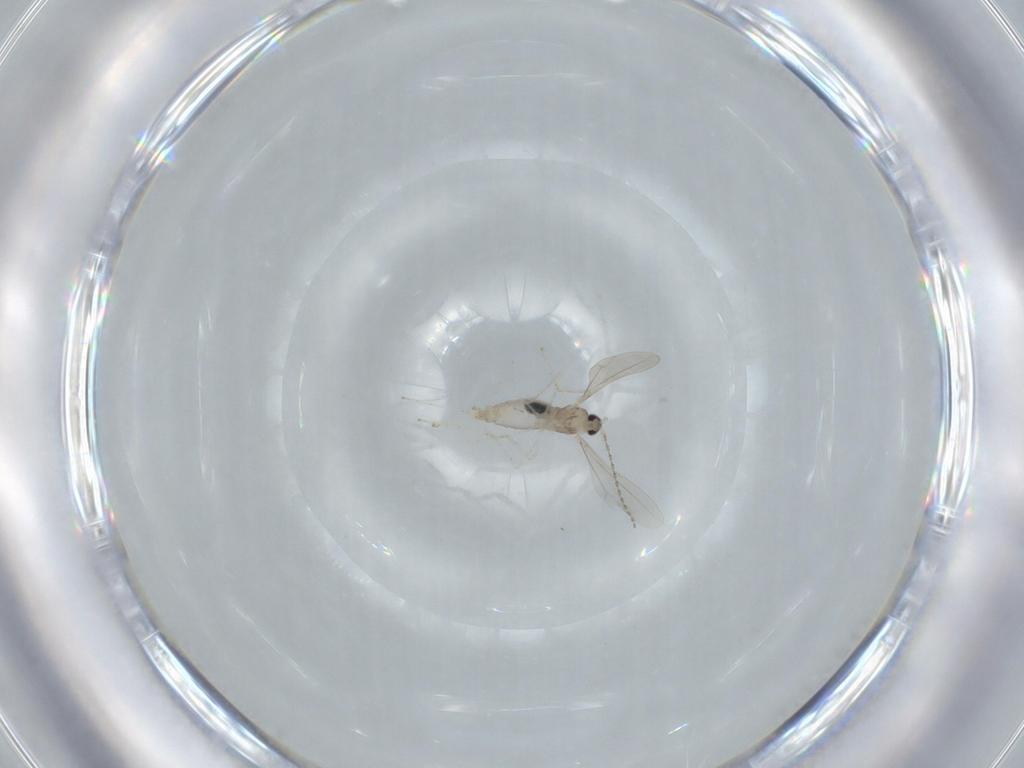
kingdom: Animalia
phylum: Arthropoda
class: Insecta
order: Diptera
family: Cecidomyiidae
